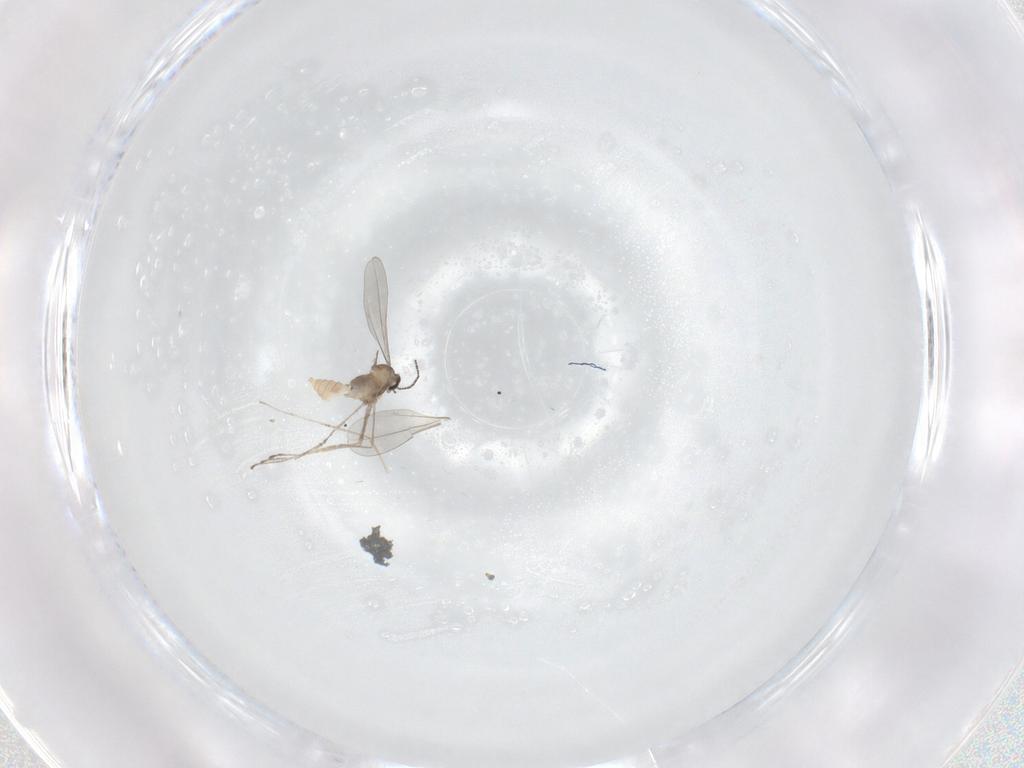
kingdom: Animalia
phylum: Arthropoda
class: Insecta
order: Diptera
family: Cecidomyiidae
